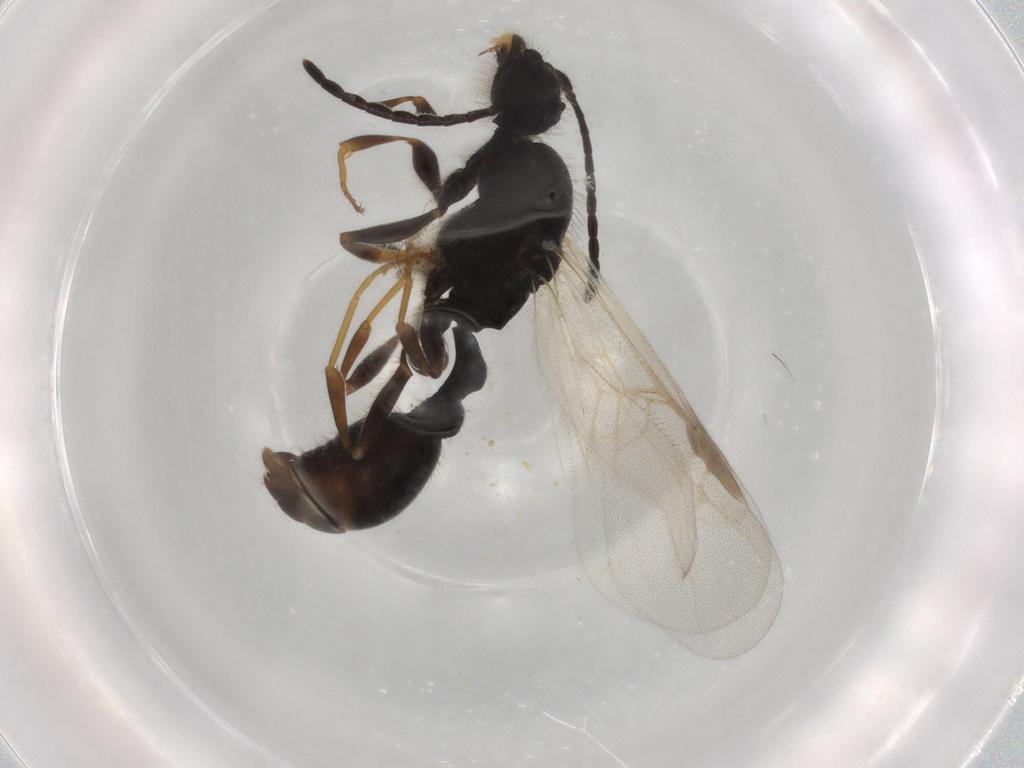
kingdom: Animalia
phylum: Arthropoda
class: Insecta
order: Hymenoptera
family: Formicidae
